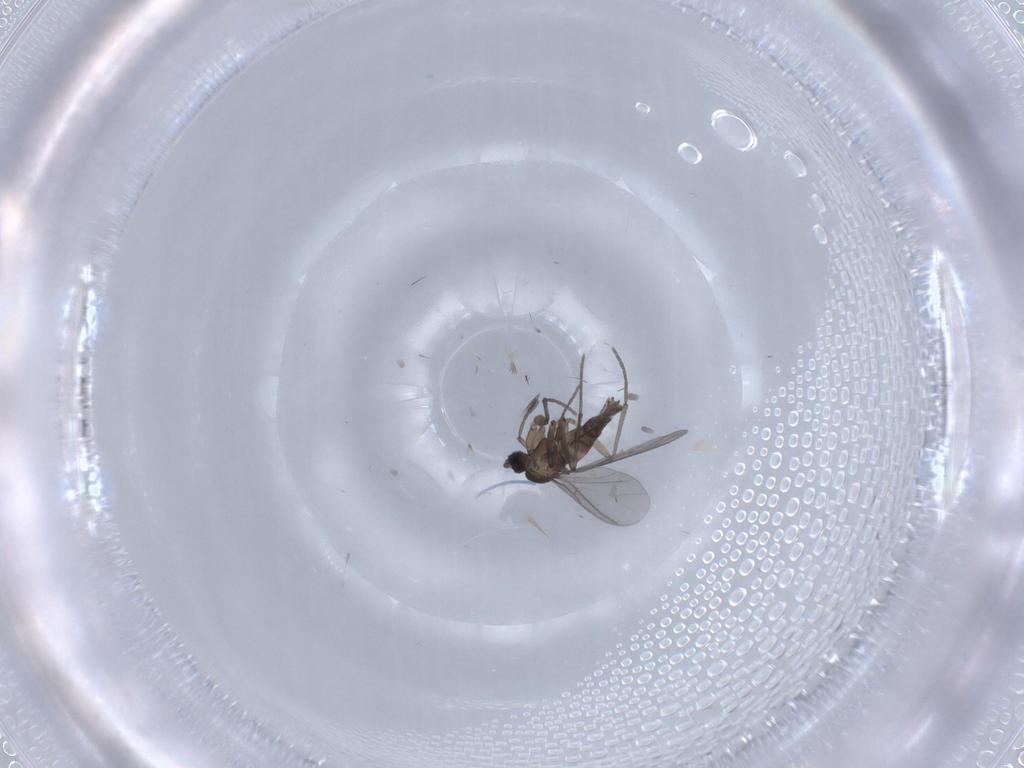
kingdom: Animalia
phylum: Arthropoda
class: Insecta
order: Diptera
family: Sciaridae
